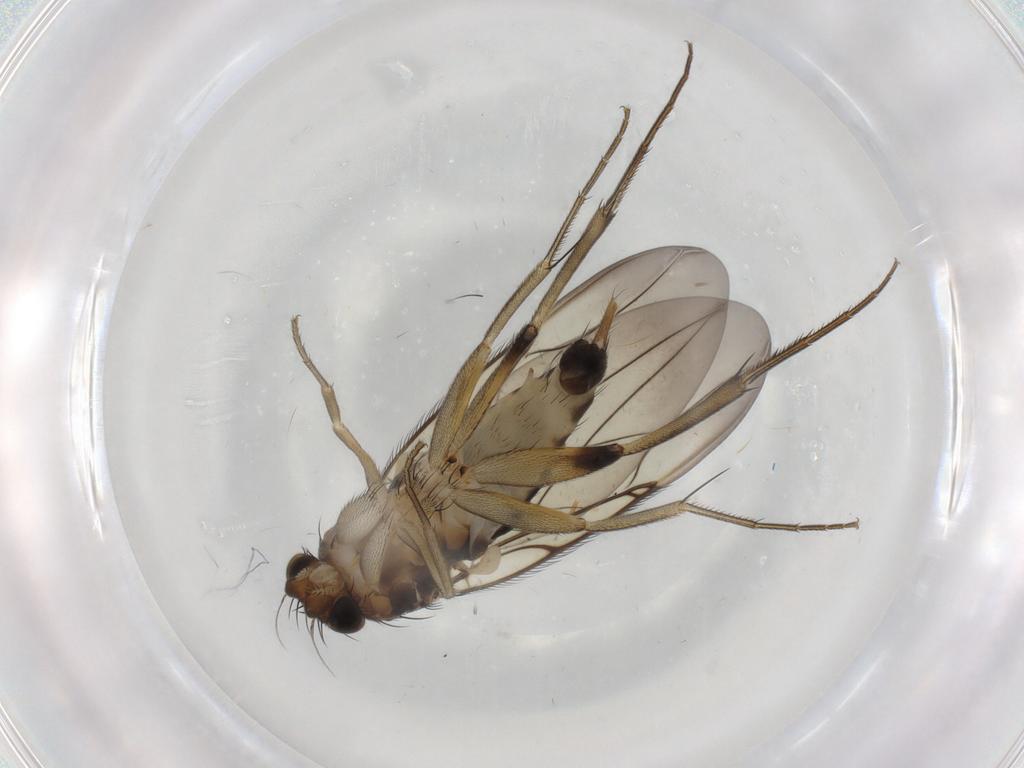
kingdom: Animalia
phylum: Arthropoda
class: Insecta
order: Diptera
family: Phoridae
